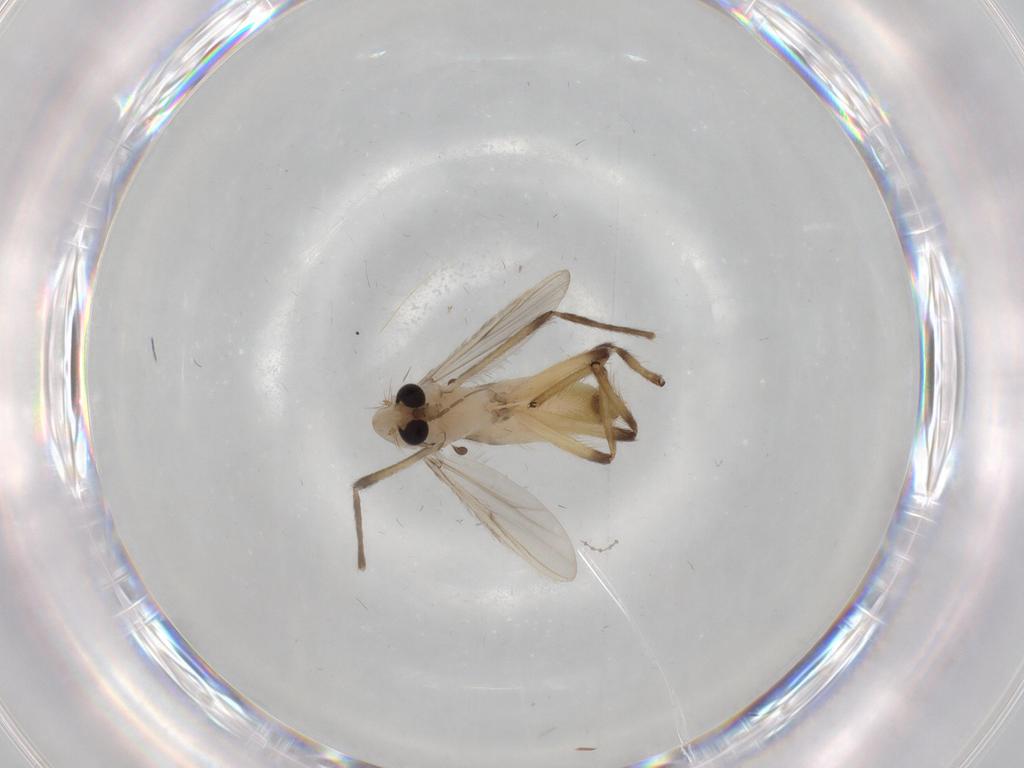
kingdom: Animalia
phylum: Arthropoda
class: Insecta
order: Diptera
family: Chironomidae
